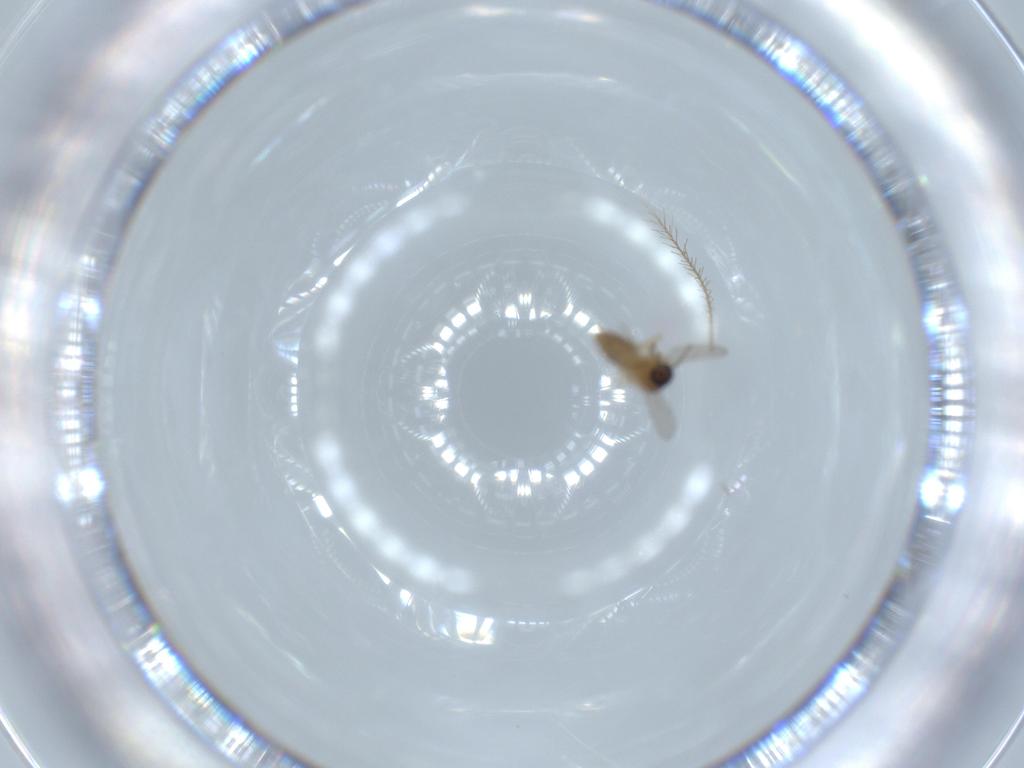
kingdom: Animalia
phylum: Arthropoda
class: Insecta
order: Diptera
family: Ceratopogonidae
